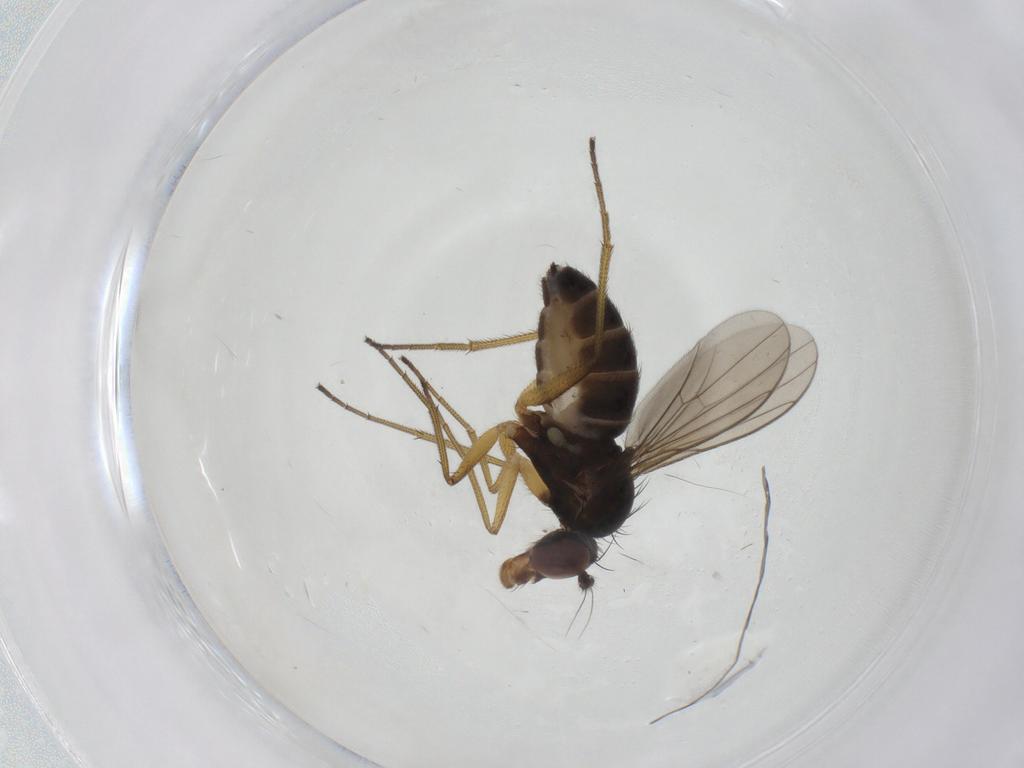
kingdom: Animalia
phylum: Arthropoda
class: Insecta
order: Diptera
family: Dolichopodidae
